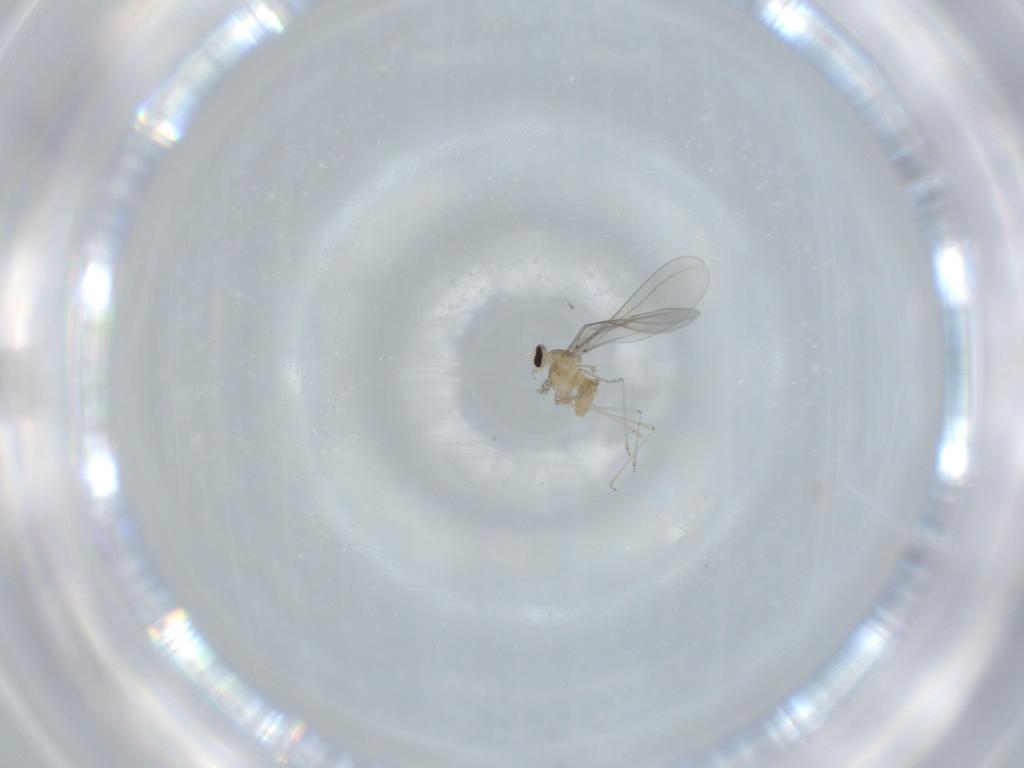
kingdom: Animalia
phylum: Arthropoda
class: Insecta
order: Diptera
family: Cecidomyiidae
